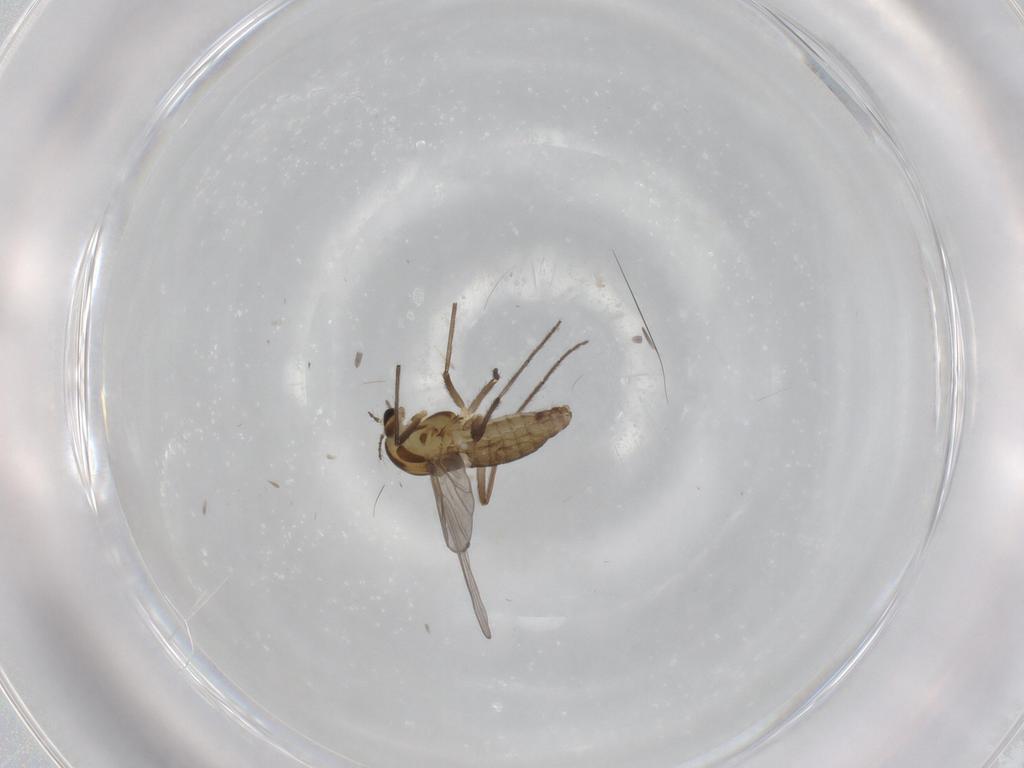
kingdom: Animalia
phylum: Arthropoda
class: Insecta
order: Diptera
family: Chironomidae
